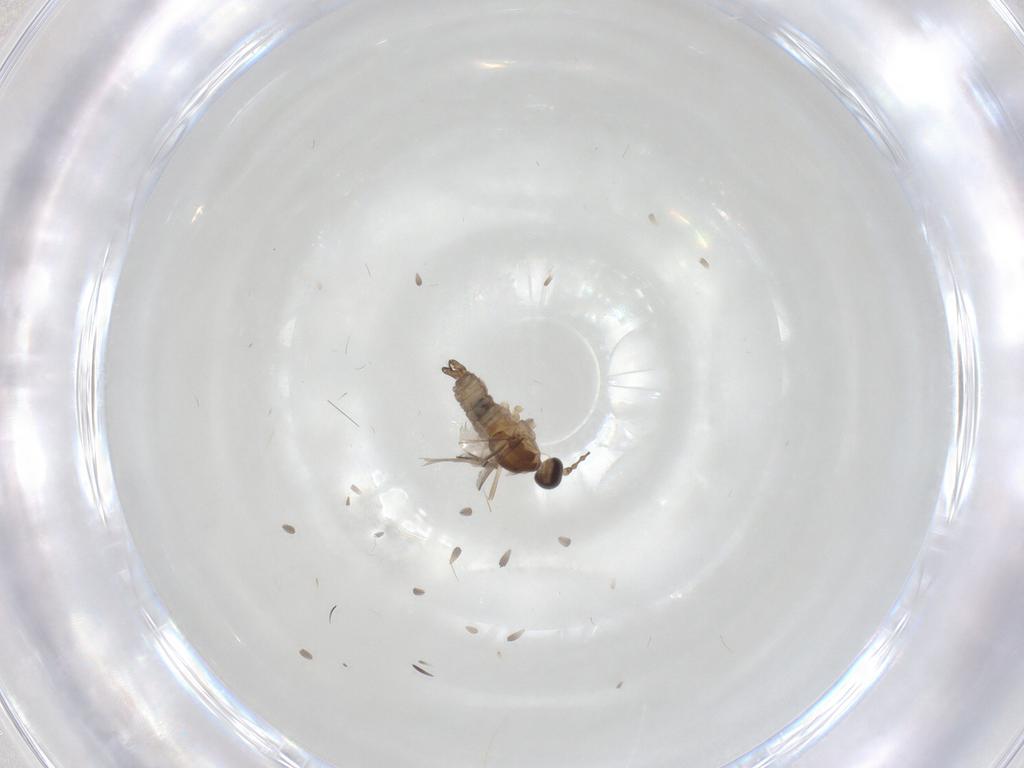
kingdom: Animalia
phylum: Arthropoda
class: Insecta
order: Diptera
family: Cecidomyiidae
